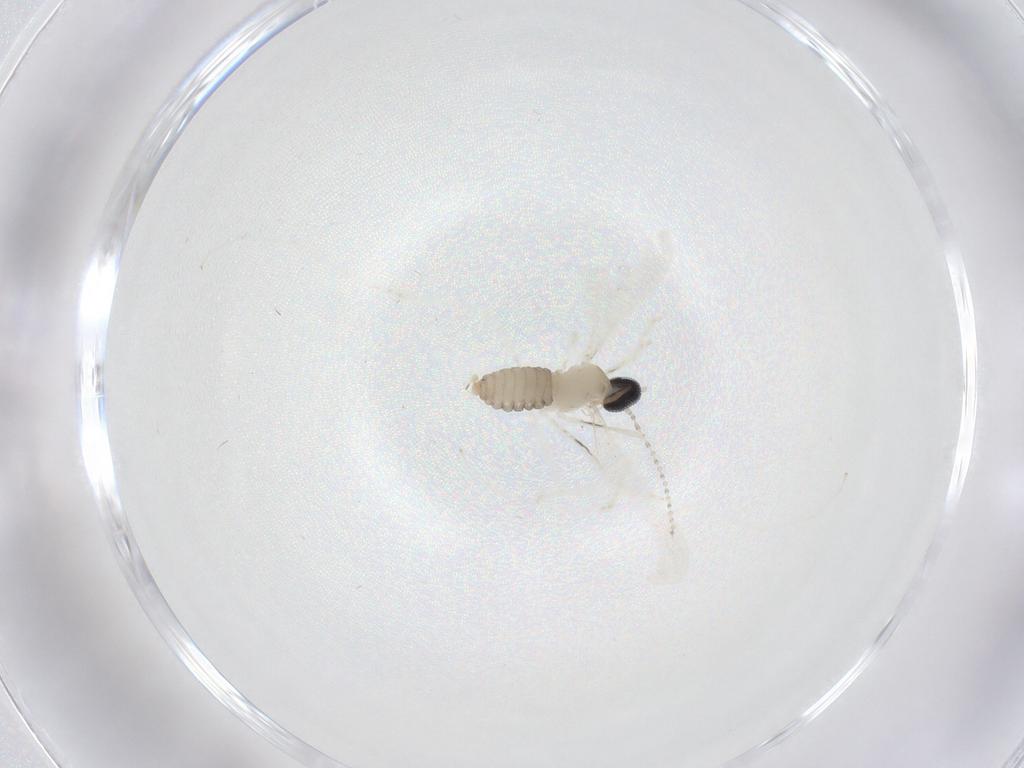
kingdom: Animalia
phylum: Arthropoda
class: Insecta
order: Diptera
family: Cecidomyiidae
